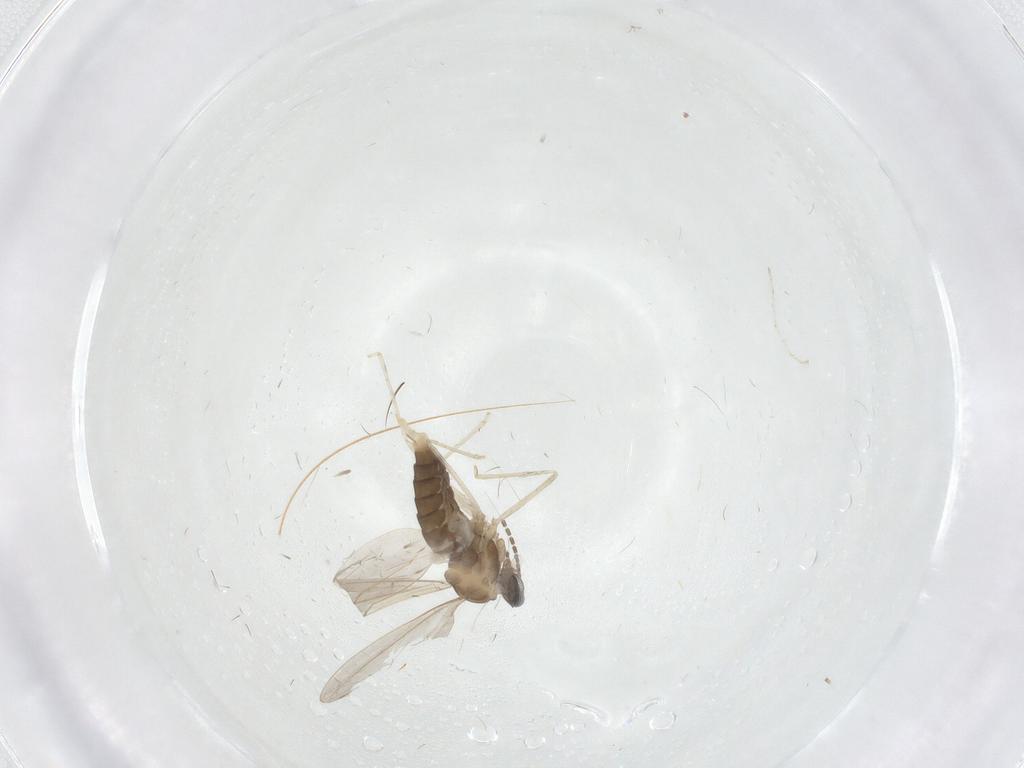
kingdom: Animalia
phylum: Arthropoda
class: Insecta
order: Diptera
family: Cecidomyiidae
